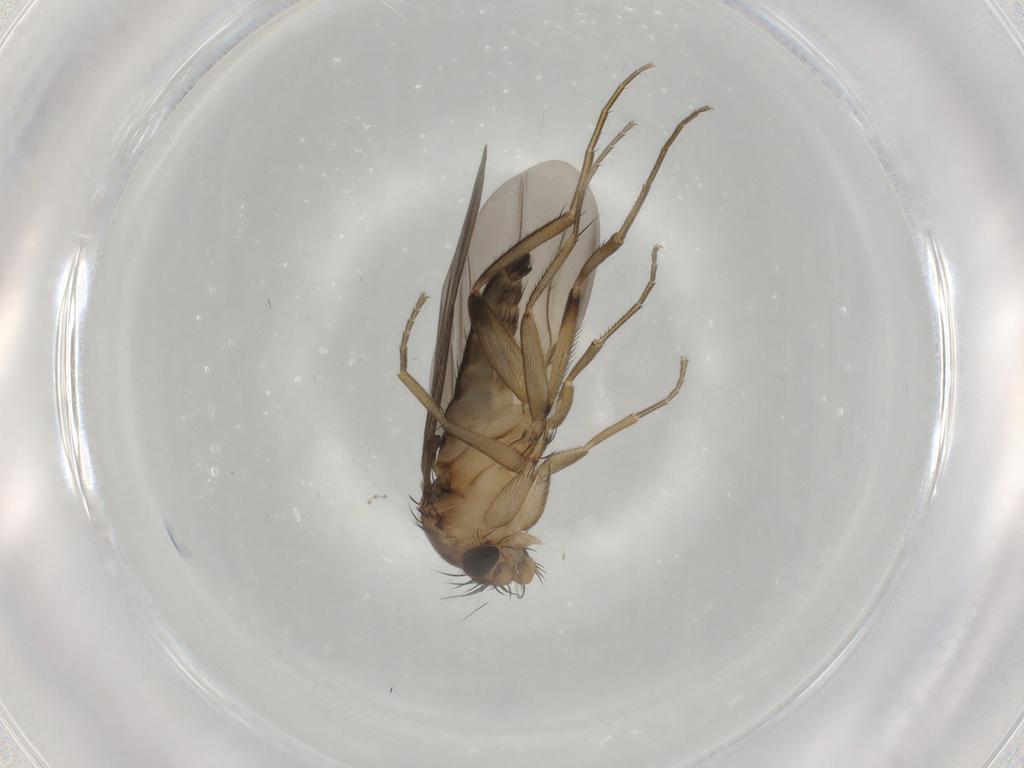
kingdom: Animalia
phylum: Arthropoda
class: Insecta
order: Diptera
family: Phoridae
